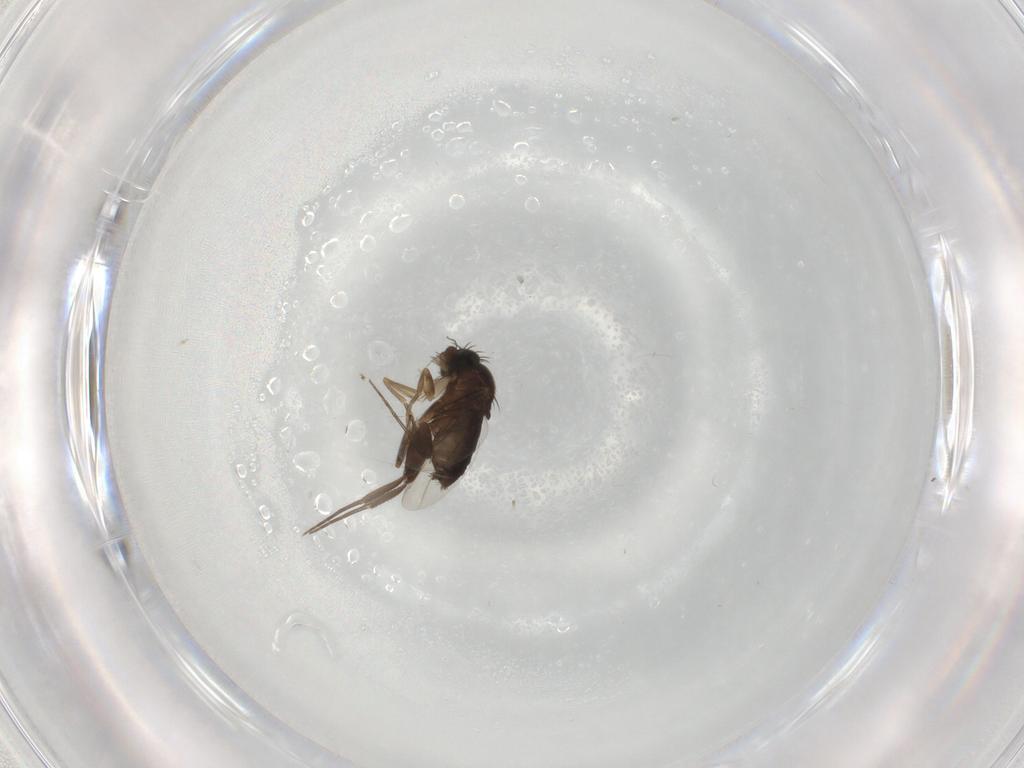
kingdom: Animalia
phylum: Arthropoda
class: Insecta
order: Diptera
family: Phoridae
